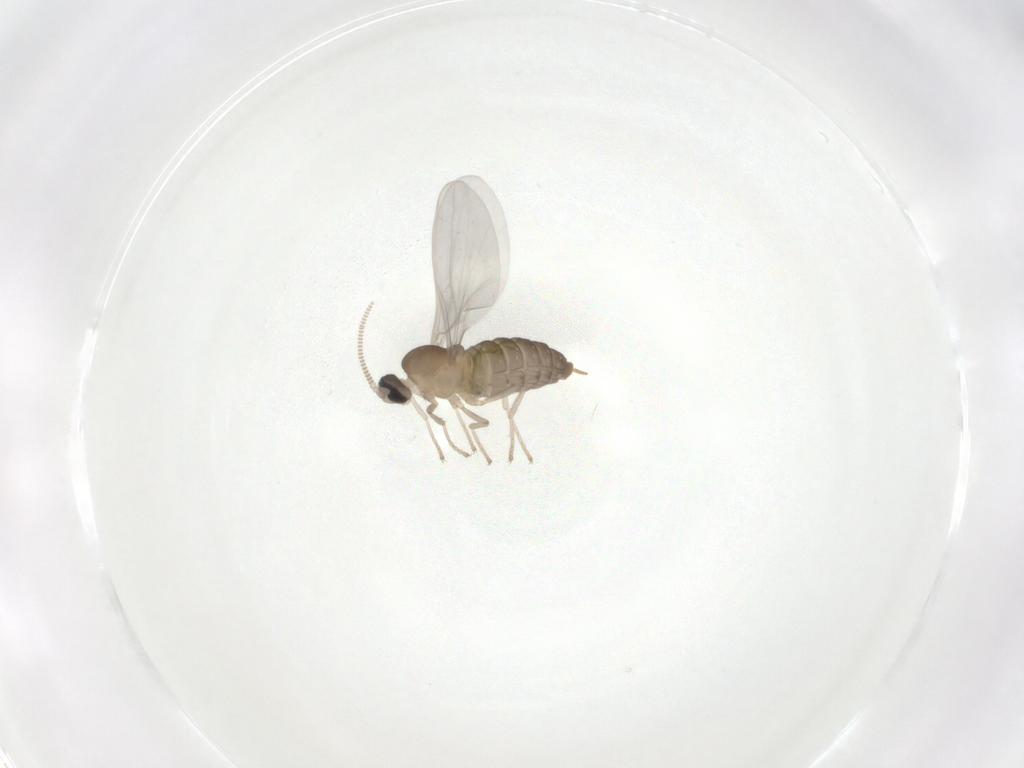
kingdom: Animalia
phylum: Arthropoda
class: Insecta
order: Diptera
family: Cecidomyiidae
